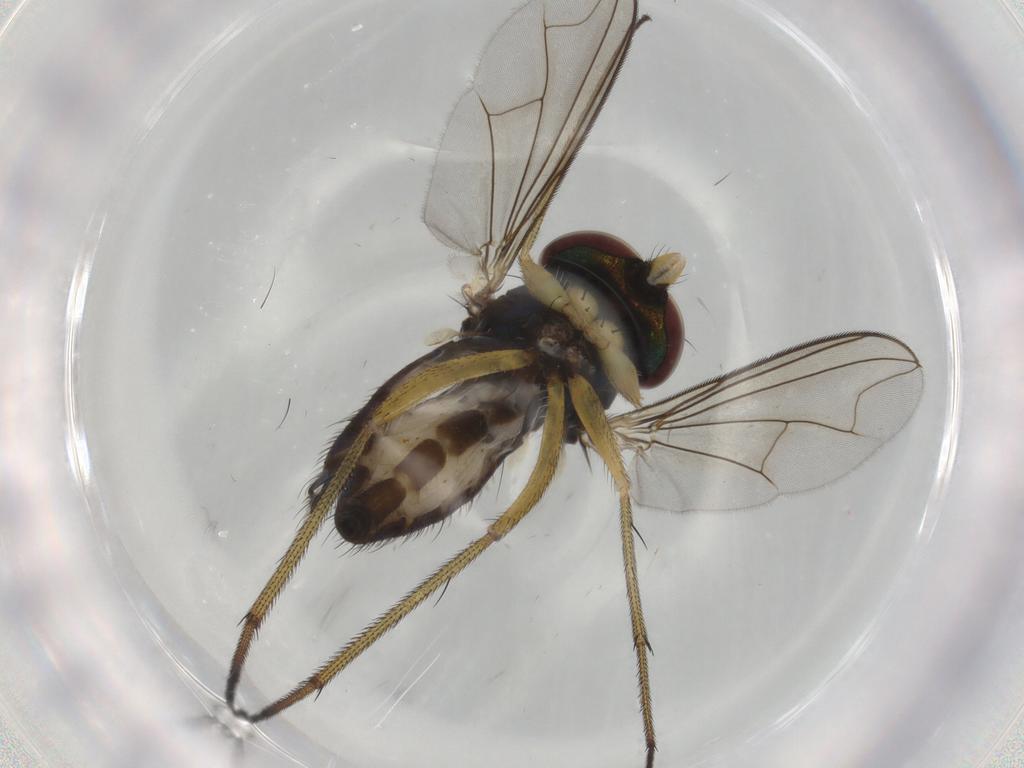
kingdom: Animalia
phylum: Arthropoda
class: Insecta
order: Diptera
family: Dolichopodidae
